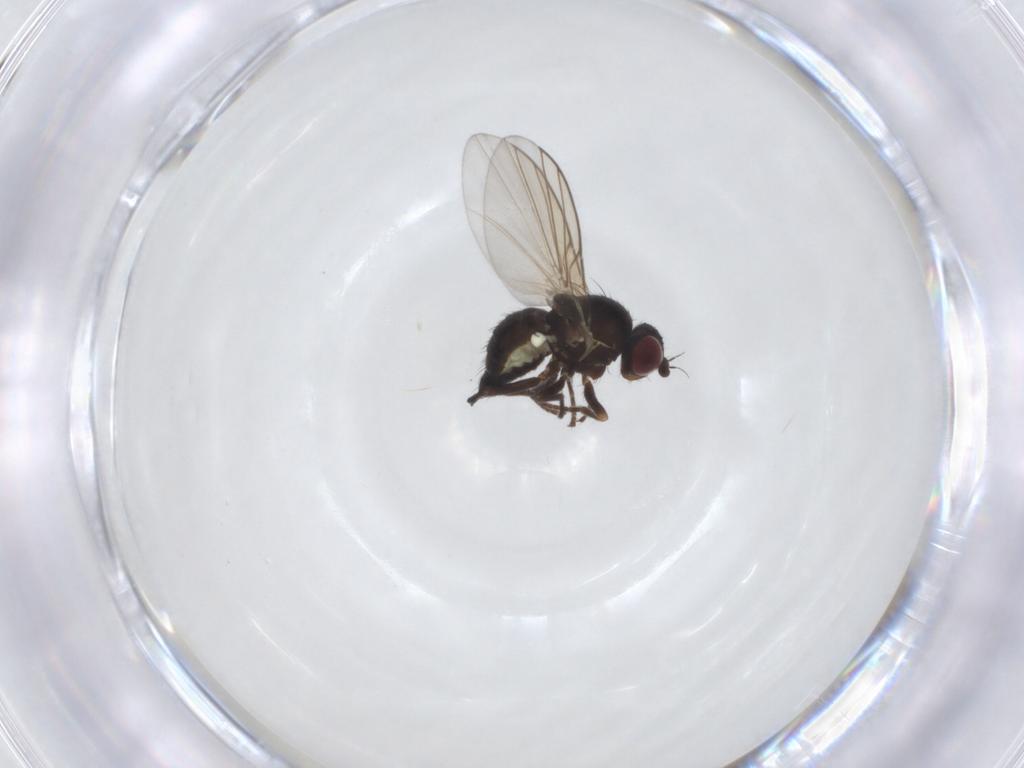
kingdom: Animalia
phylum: Arthropoda
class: Insecta
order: Diptera
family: Agromyzidae
